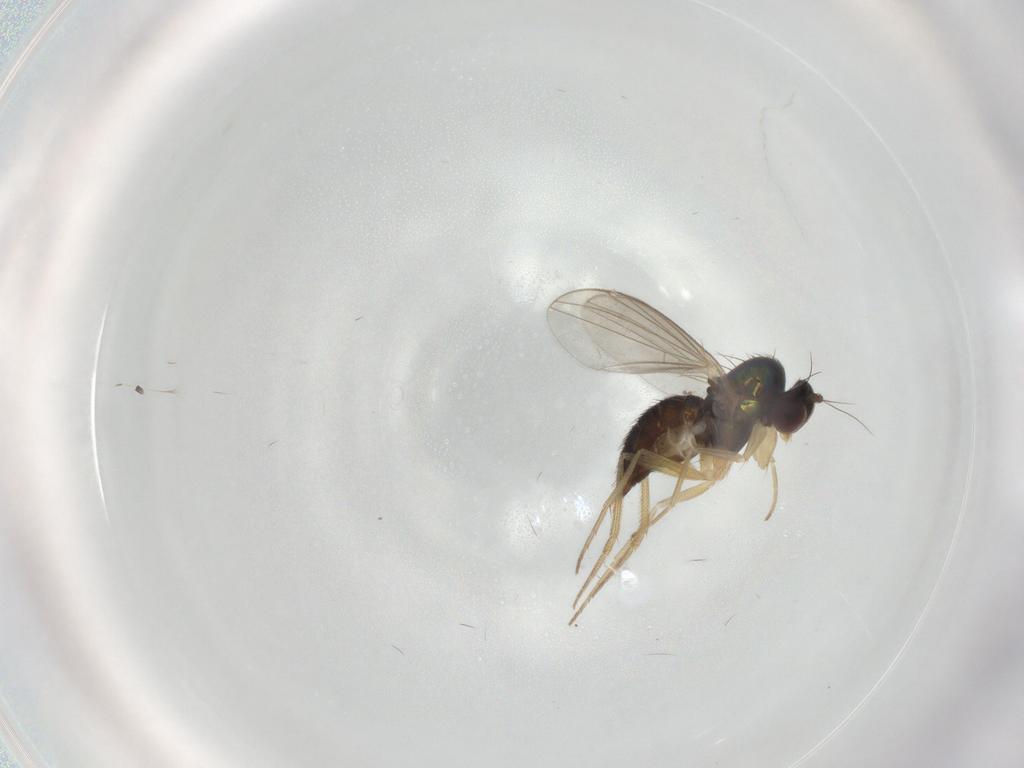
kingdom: Animalia
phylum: Arthropoda
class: Insecta
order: Diptera
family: Dolichopodidae
